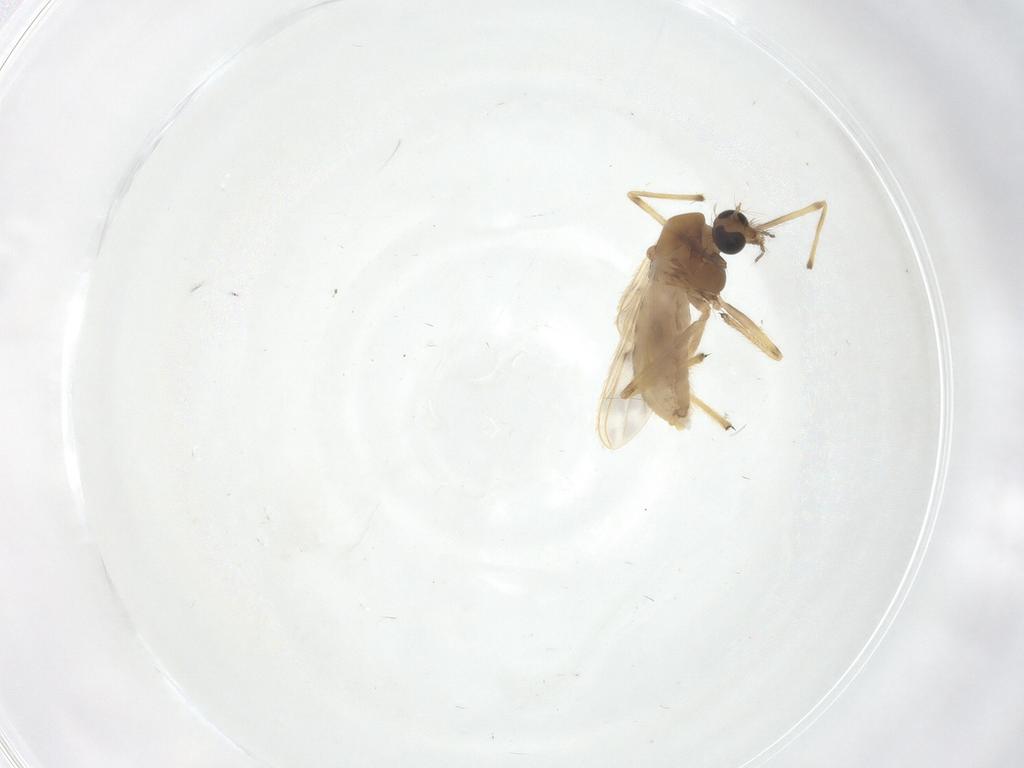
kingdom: Animalia
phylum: Arthropoda
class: Insecta
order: Diptera
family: Chironomidae
